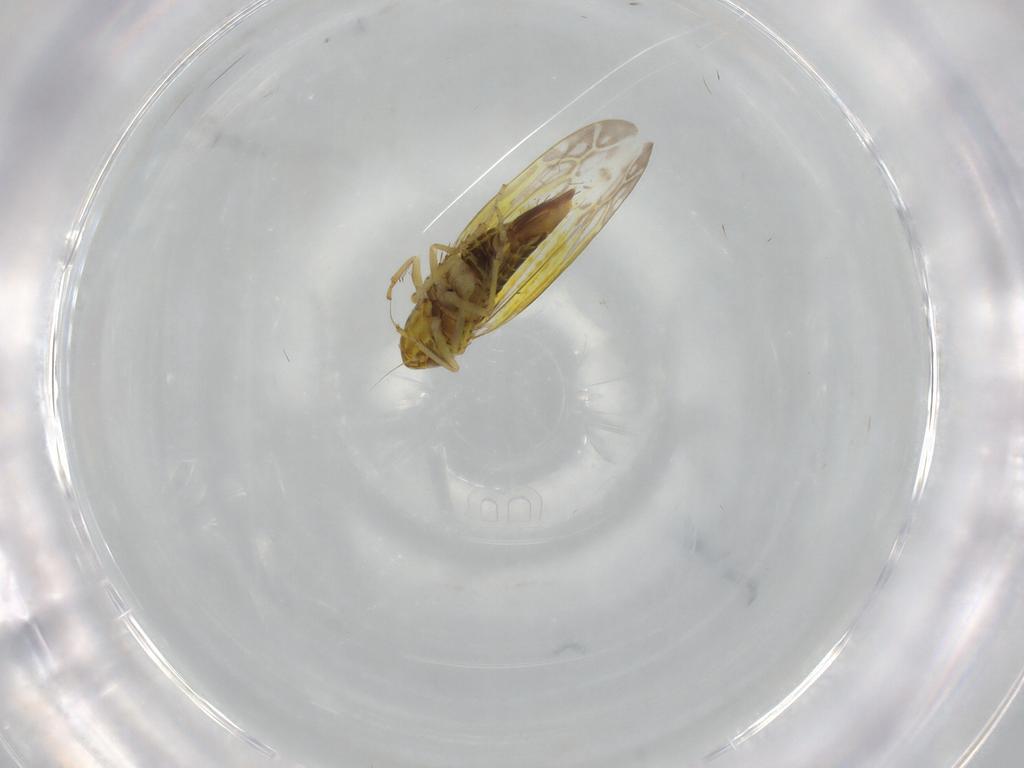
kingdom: Animalia
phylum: Arthropoda
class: Insecta
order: Hemiptera
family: Cicadellidae
